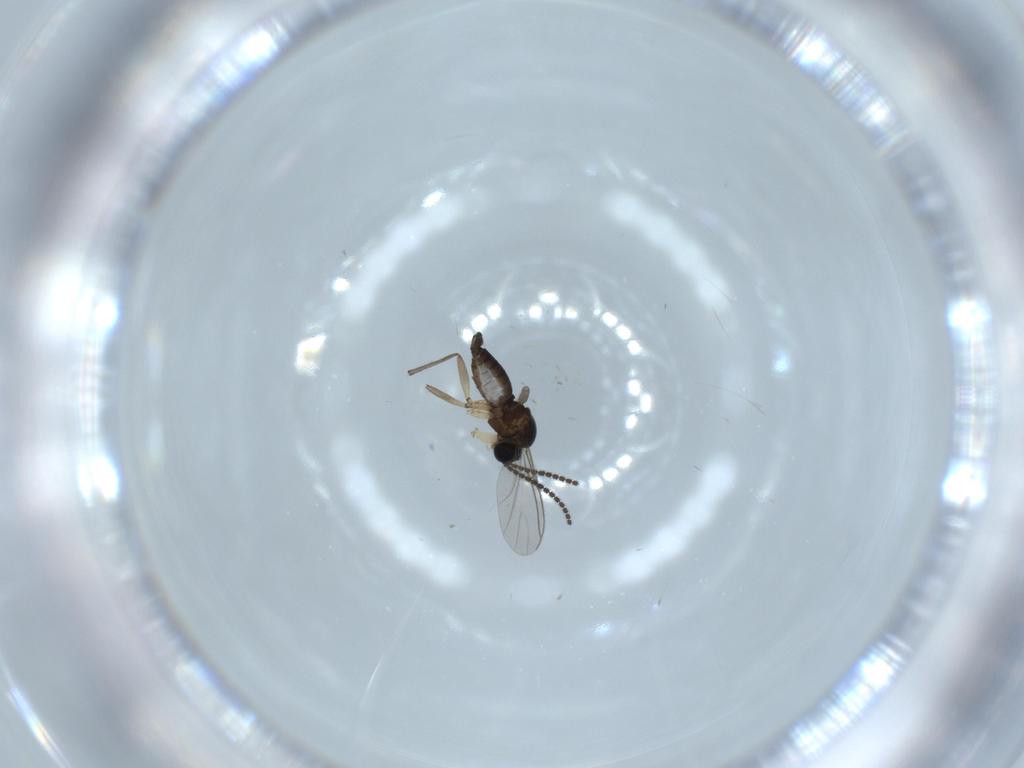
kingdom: Animalia
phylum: Arthropoda
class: Insecta
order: Diptera
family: Sciaridae
